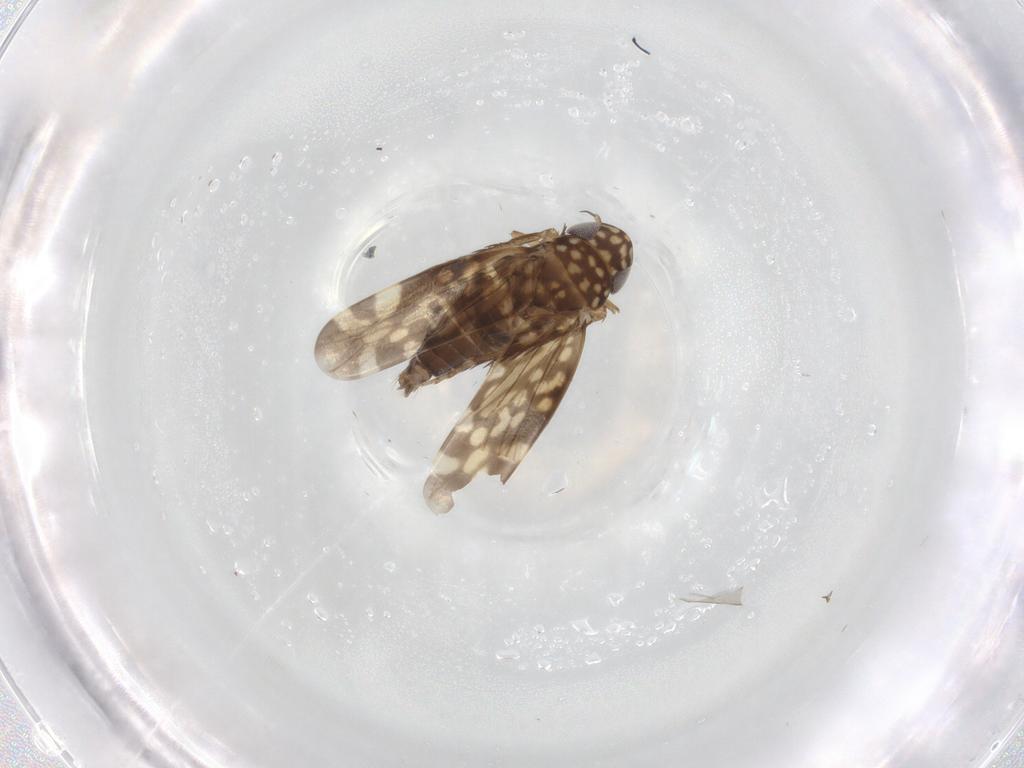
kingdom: Animalia
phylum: Arthropoda
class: Insecta
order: Hemiptera
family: Cicadellidae
